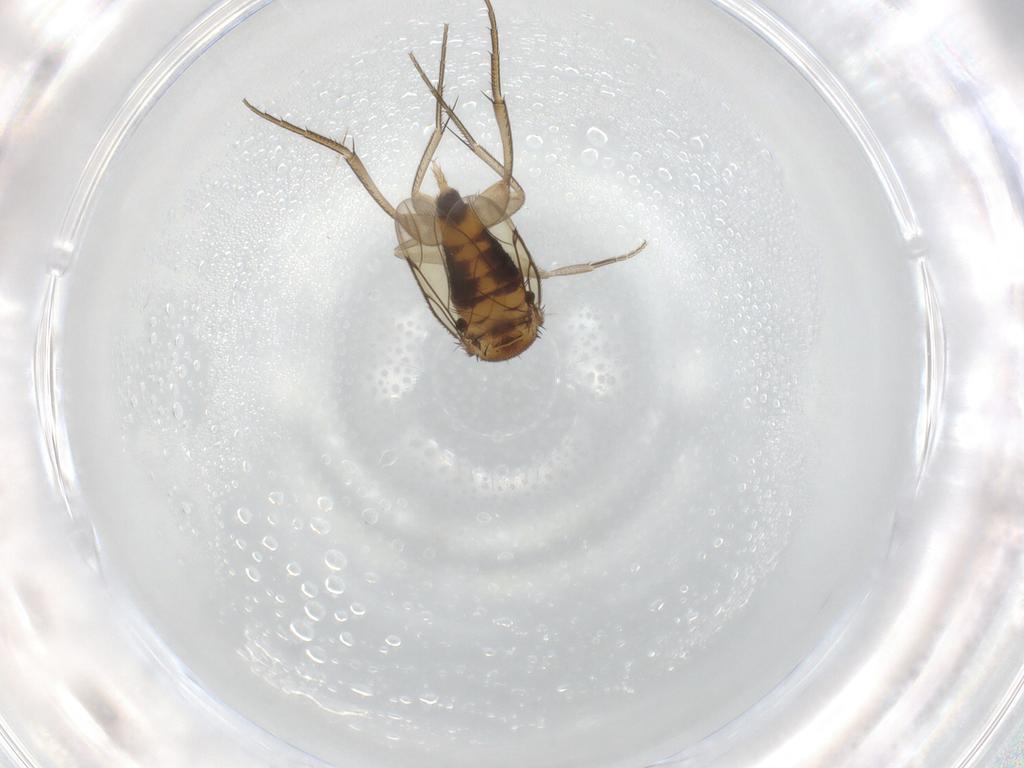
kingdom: Animalia
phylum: Arthropoda
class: Insecta
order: Diptera
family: Phoridae
